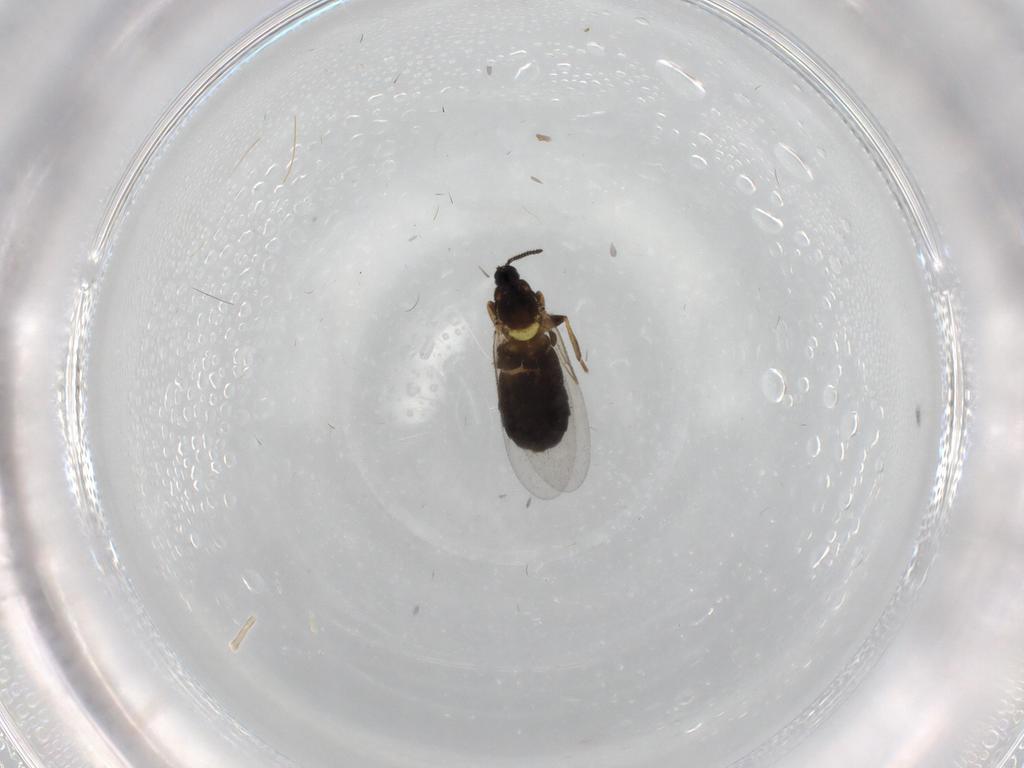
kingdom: Animalia
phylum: Arthropoda
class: Insecta
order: Diptera
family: Scatopsidae
